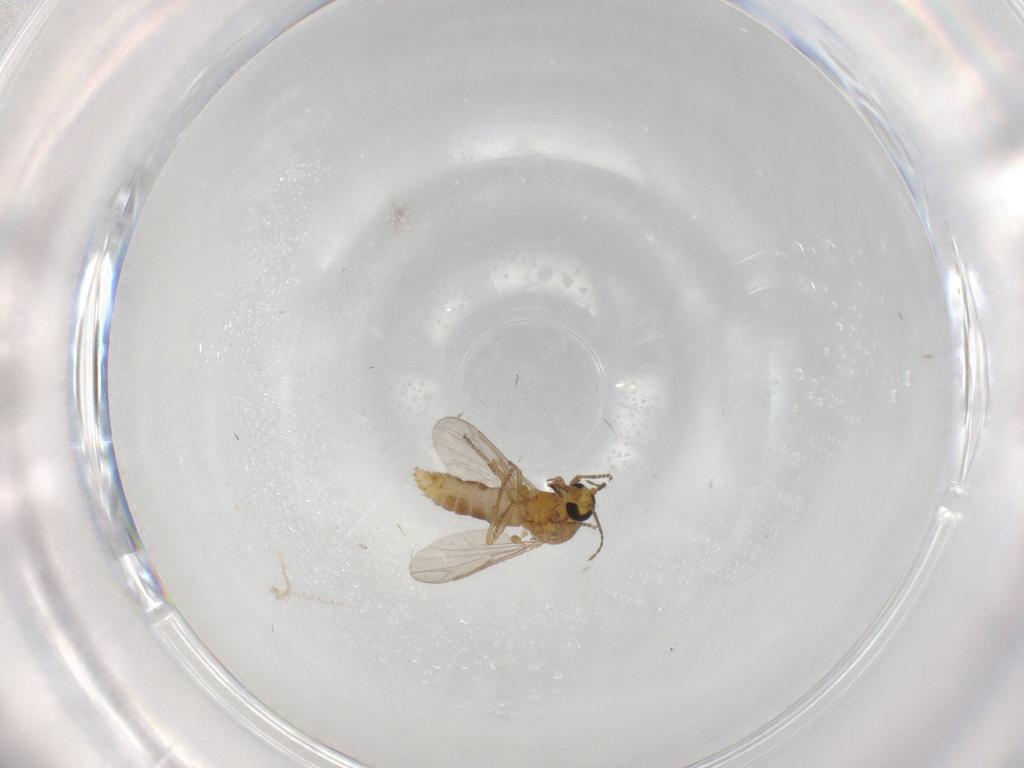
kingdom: Animalia
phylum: Arthropoda
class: Insecta
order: Diptera
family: Ceratopogonidae
